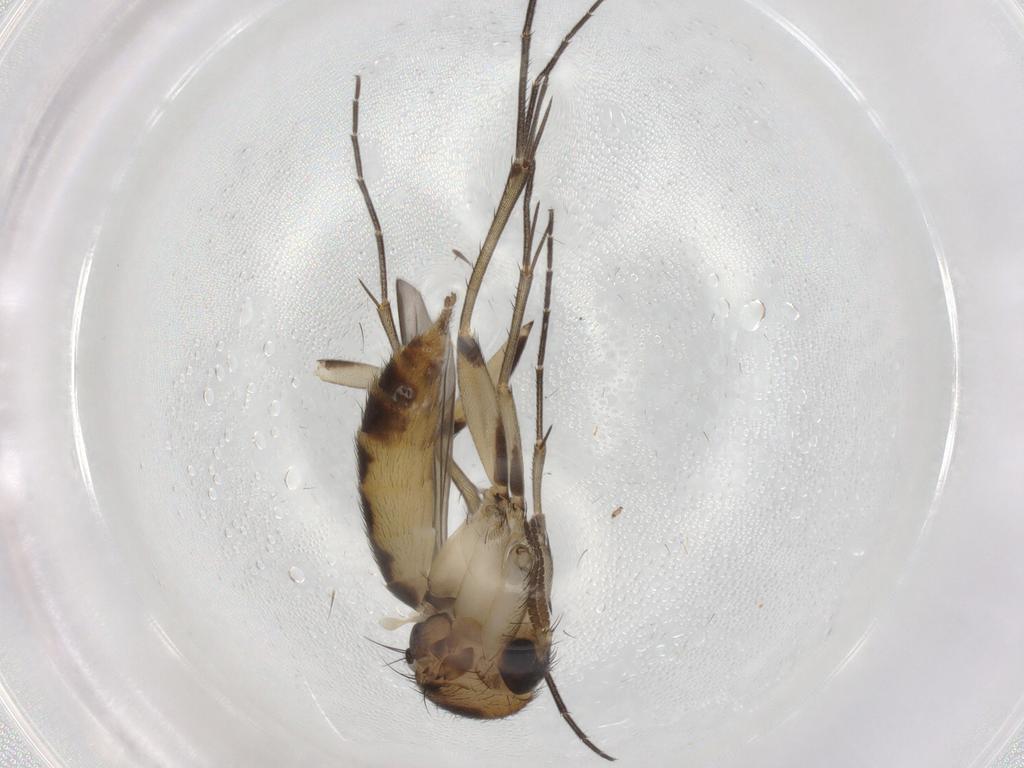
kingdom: Animalia
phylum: Arthropoda
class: Insecta
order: Diptera
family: Mycetophilidae
